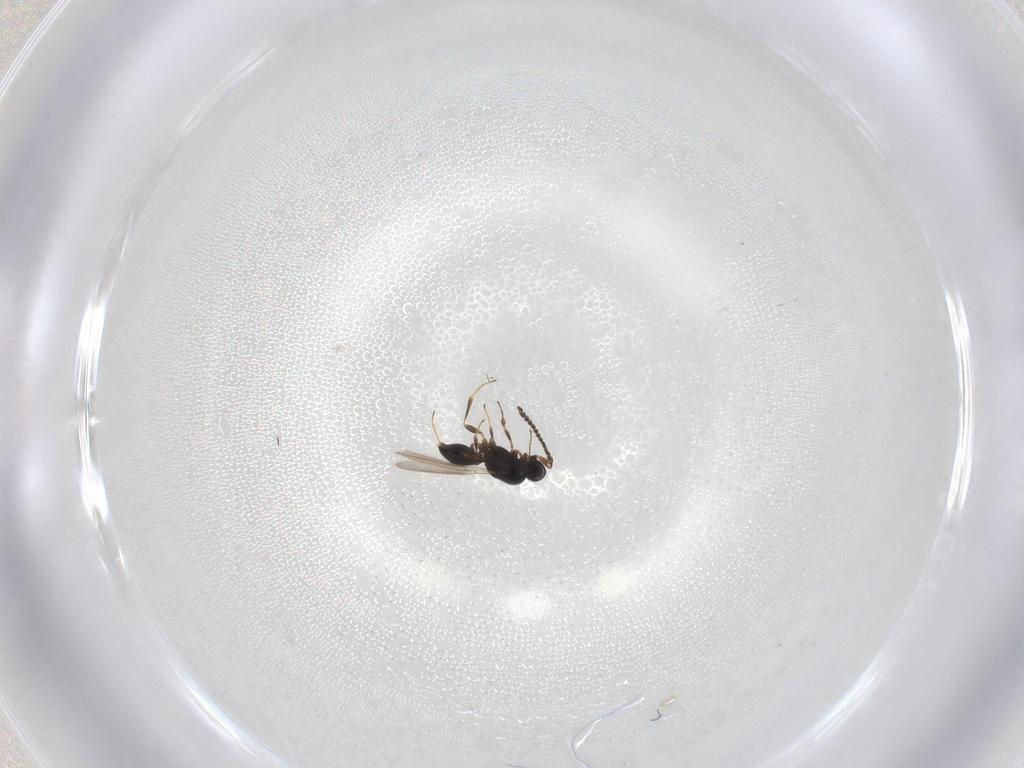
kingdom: Animalia
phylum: Arthropoda
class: Insecta
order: Hymenoptera
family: Scelionidae
